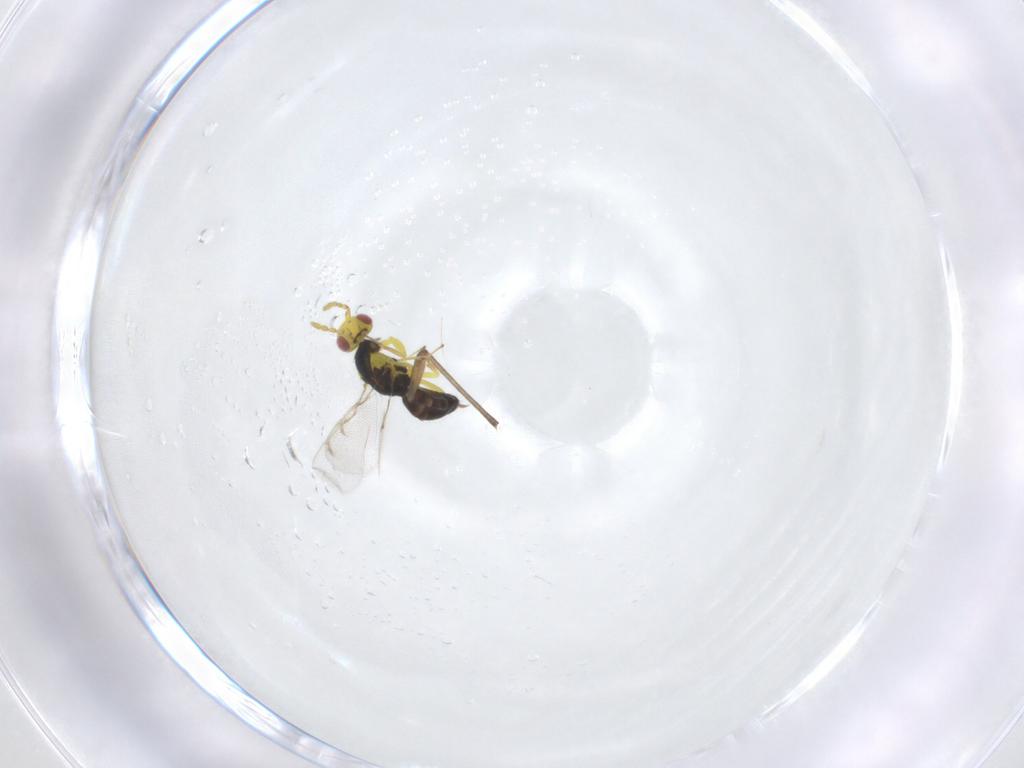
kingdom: Animalia
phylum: Arthropoda
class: Insecta
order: Hymenoptera
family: Eulophidae
